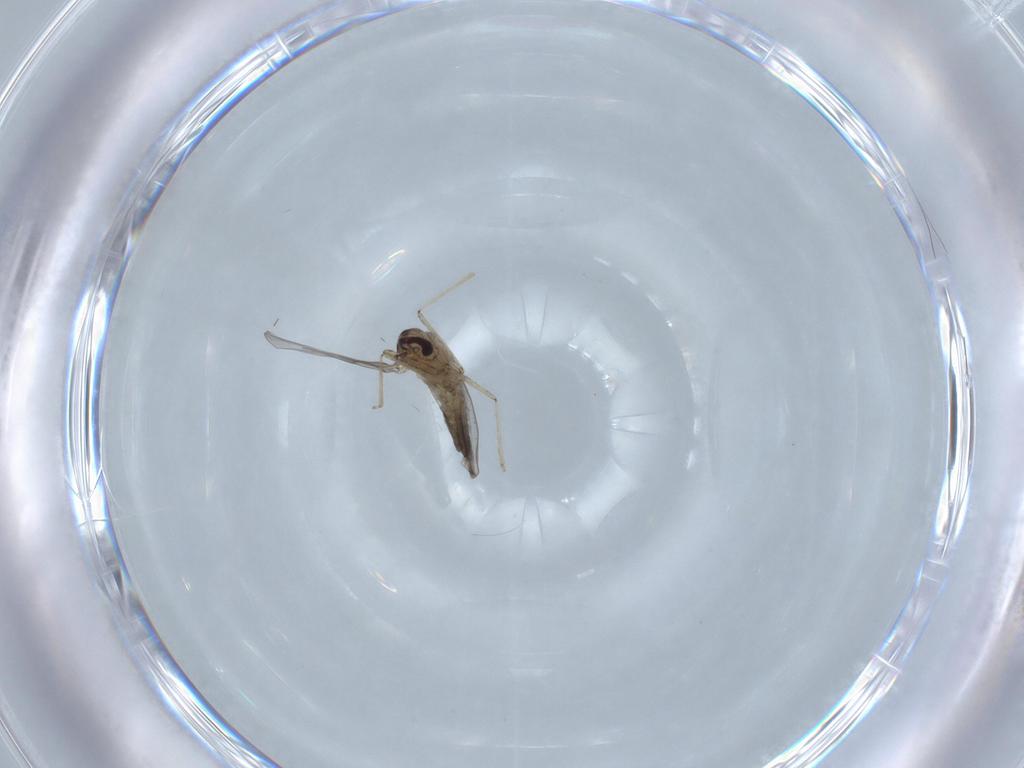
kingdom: Animalia
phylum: Arthropoda
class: Insecta
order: Diptera
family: Cecidomyiidae
